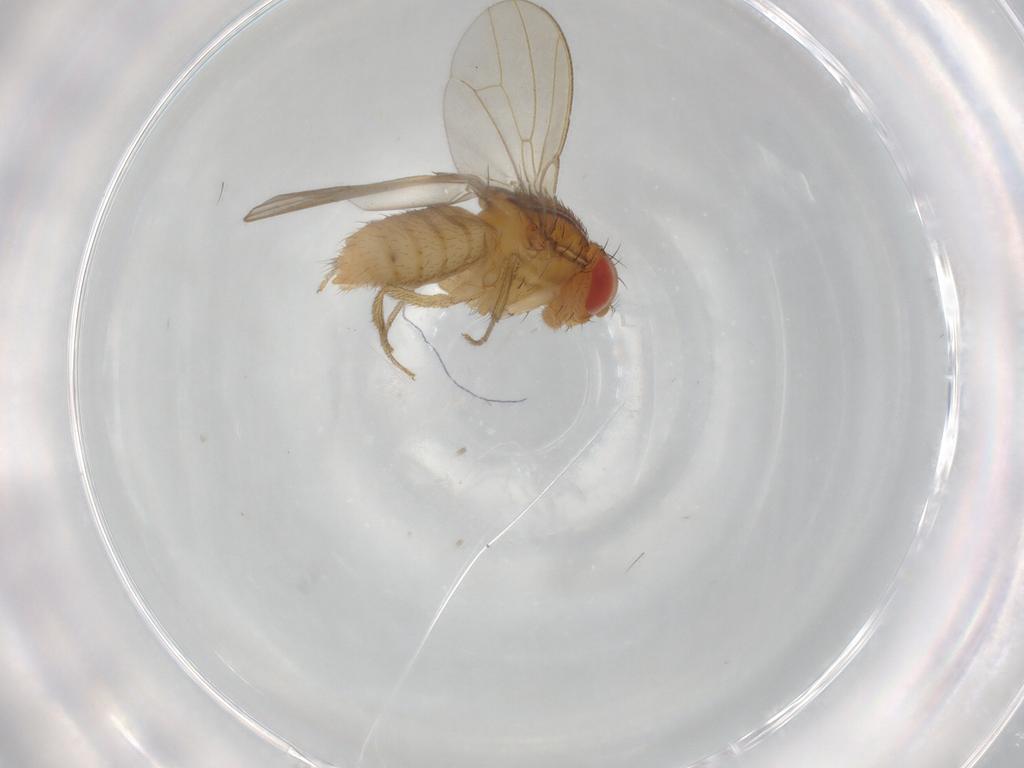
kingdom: Animalia
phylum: Arthropoda
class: Insecta
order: Diptera
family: Drosophilidae
